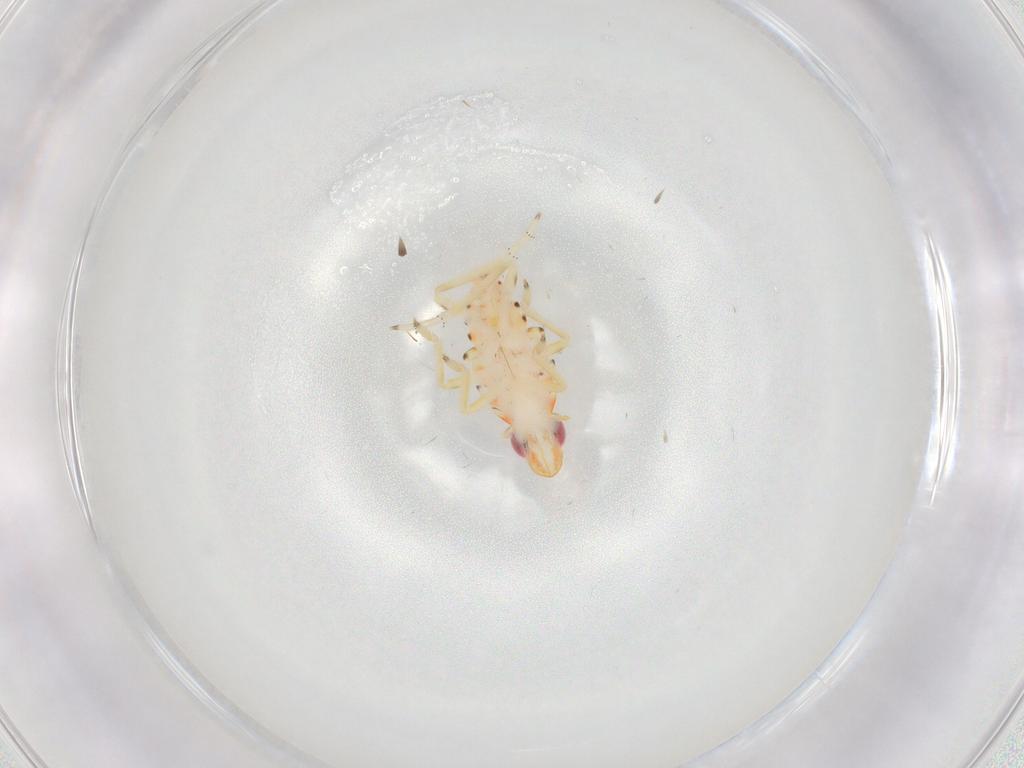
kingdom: Animalia
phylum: Arthropoda
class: Insecta
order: Hemiptera
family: Tropiduchidae
